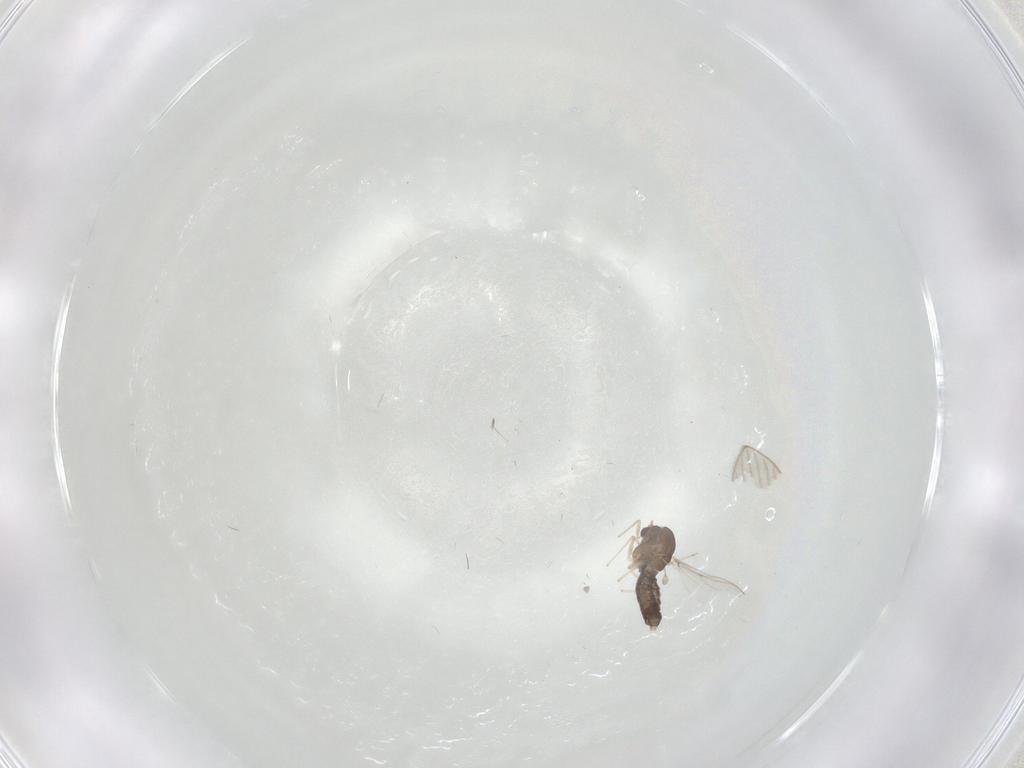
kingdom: Animalia
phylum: Arthropoda
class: Insecta
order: Diptera
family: Chironomidae
